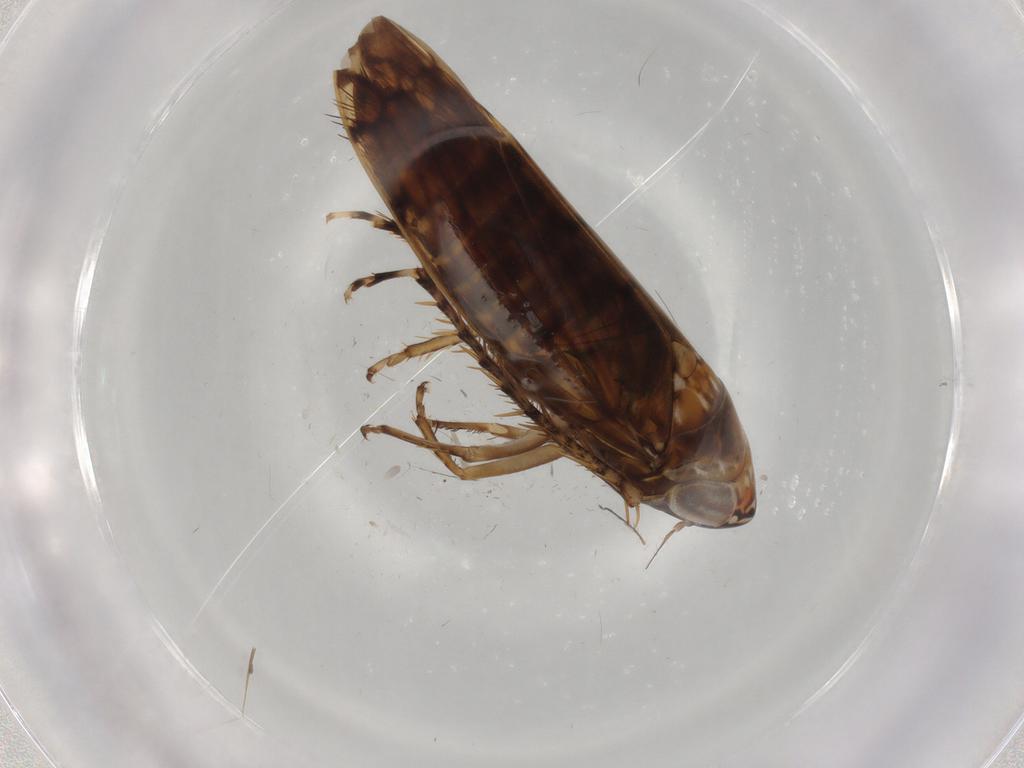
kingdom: Animalia
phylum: Arthropoda
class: Insecta
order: Hemiptera
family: Cicadellidae
